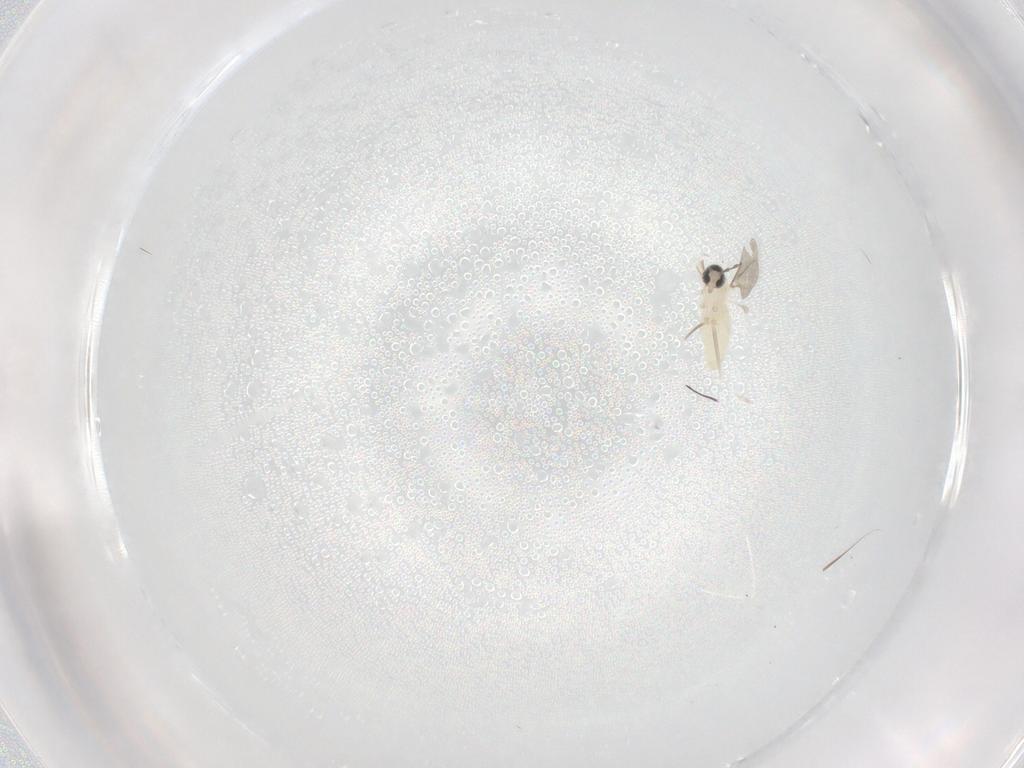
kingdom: Animalia
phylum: Arthropoda
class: Insecta
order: Diptera
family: Cecidomyiidae
